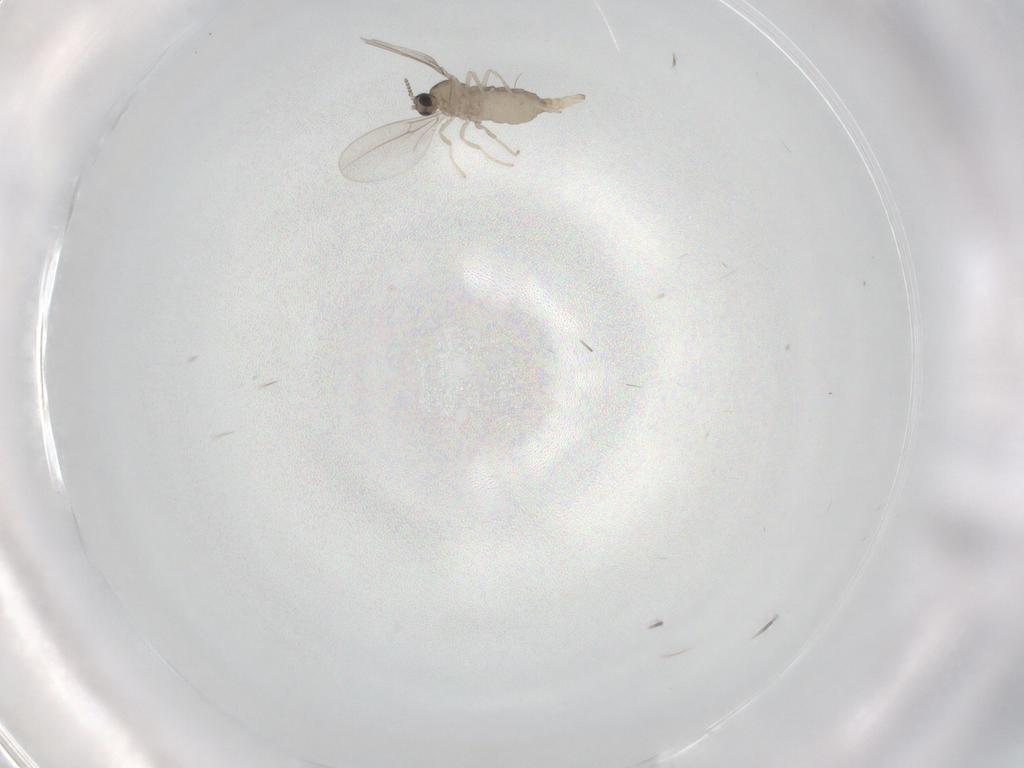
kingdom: Animalia
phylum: Arthropoda
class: Insecta
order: Diptera
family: Cecidomyiidae
